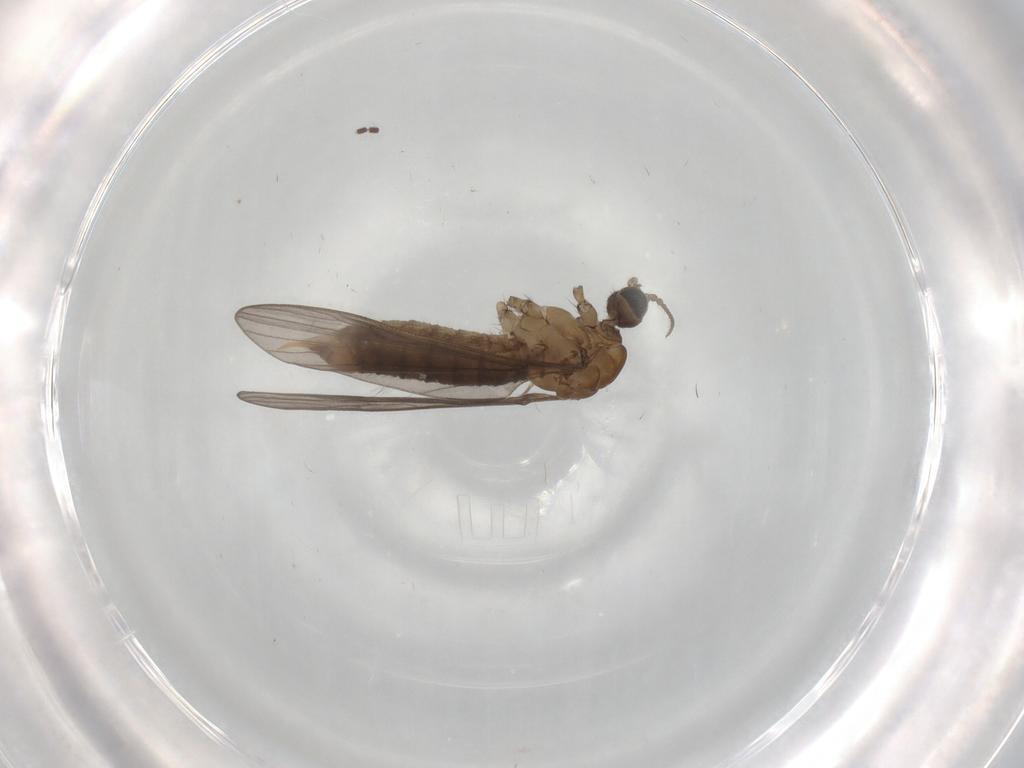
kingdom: Animalia
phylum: Arthropoda
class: Insecta
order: Diptera
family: Limoniidae
